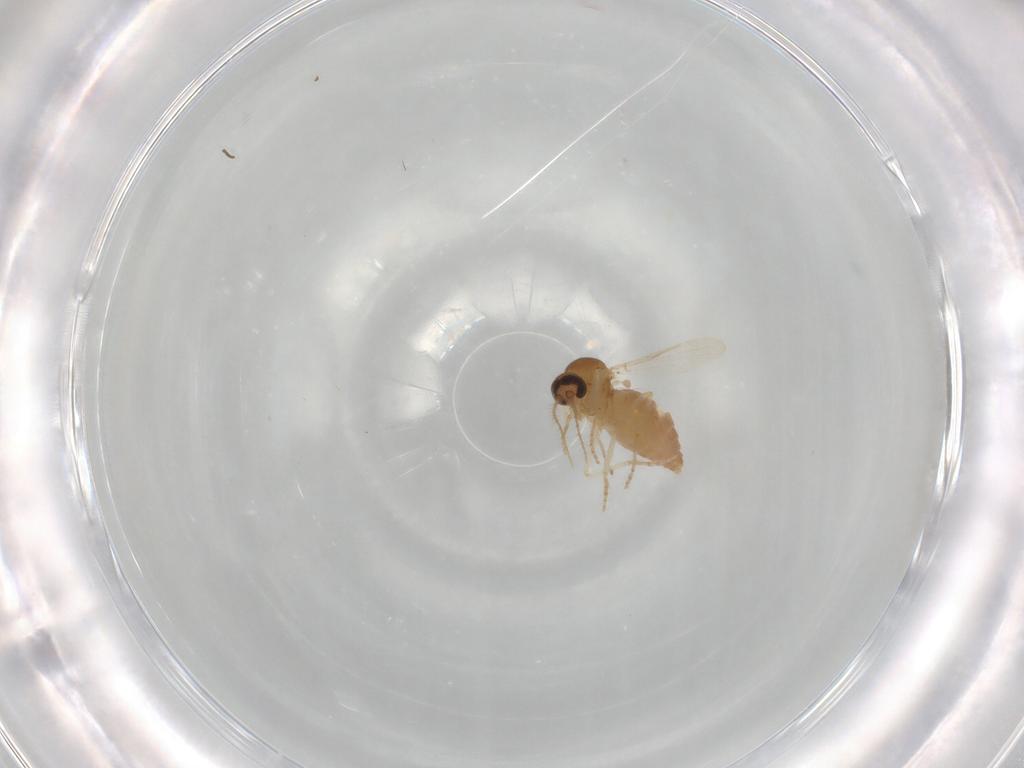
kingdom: Animalia
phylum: Arthropoda
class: Insecta
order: Diptera
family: Ceratopogonidae
